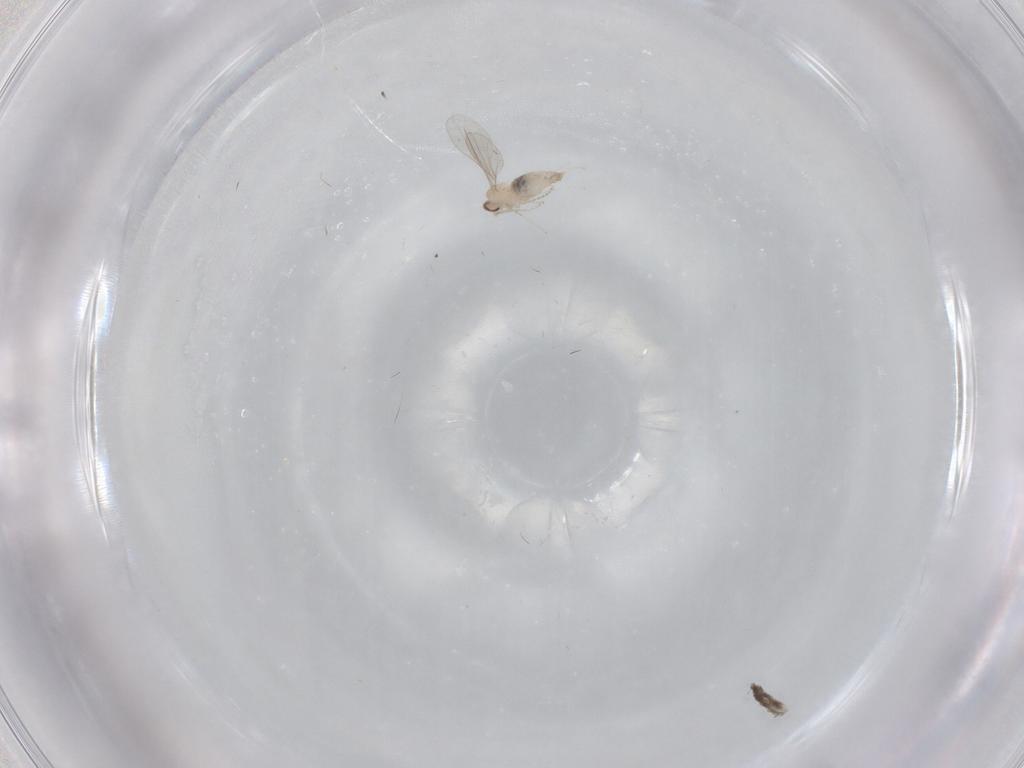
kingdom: Animalia
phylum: Arthropoda
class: Insecta
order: Diptera
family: Cecidomyiidae
